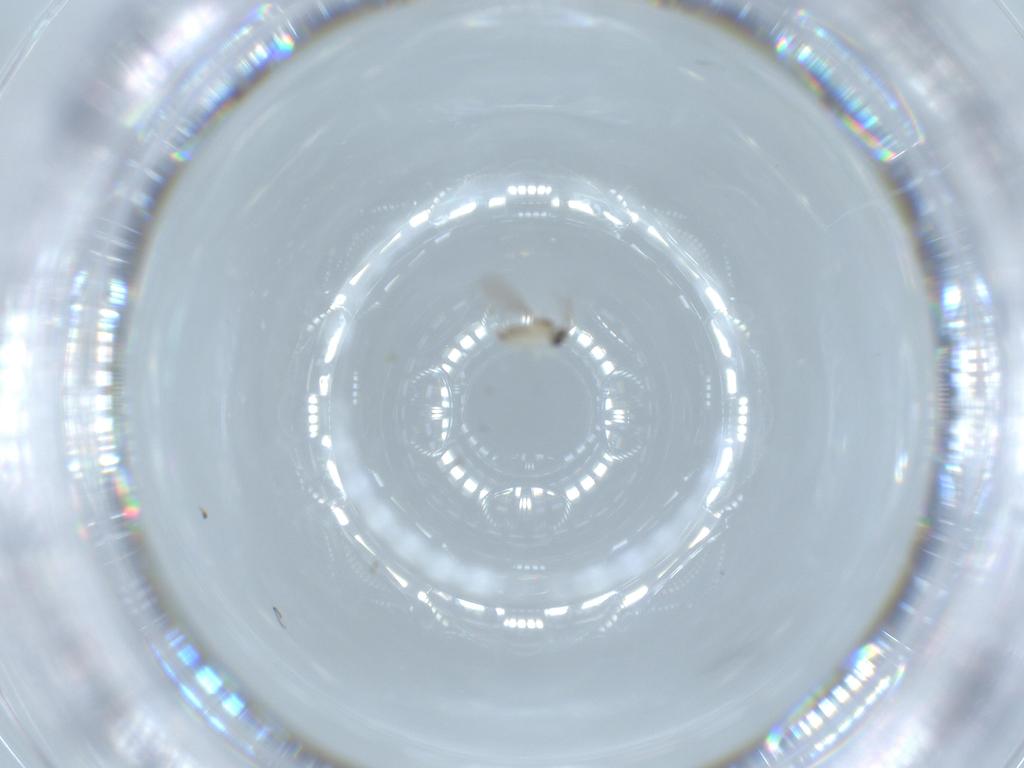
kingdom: Animalia
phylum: Arthropoda
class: Insecta
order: Diptera
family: Cecidomyiidae
